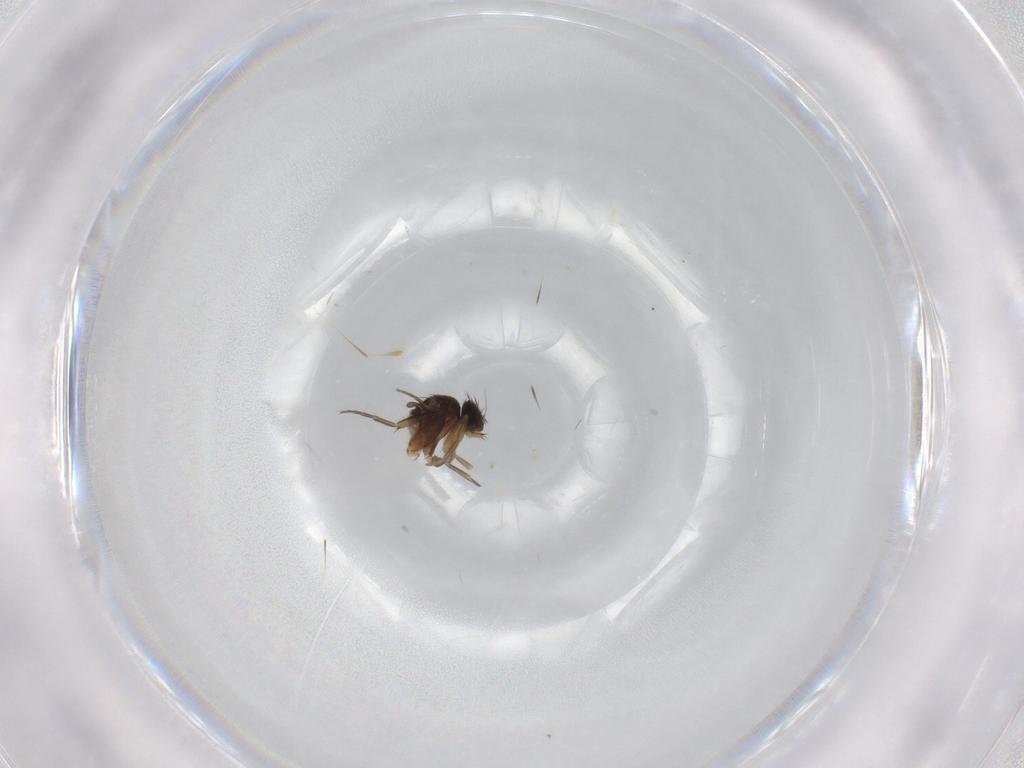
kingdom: Animalia
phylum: Arthropoda
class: Insecta
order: Diptera
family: Phoridae
